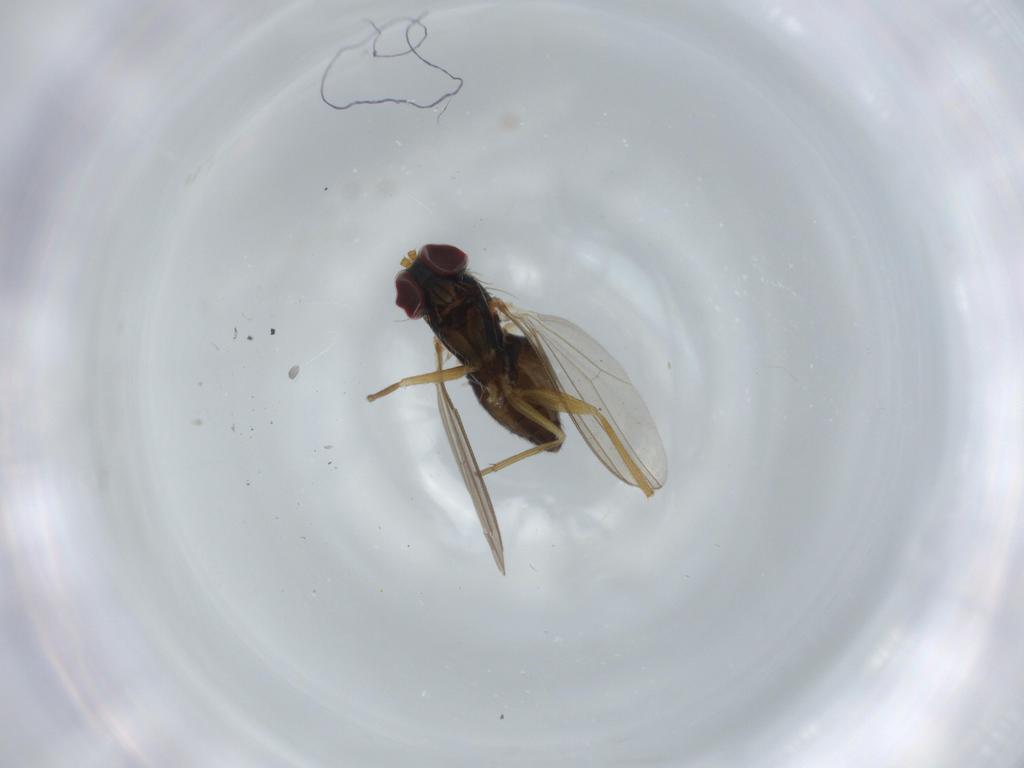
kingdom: Animalia
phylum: Arthropoda
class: Insecta
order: Diptera
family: Dolichopodidae
